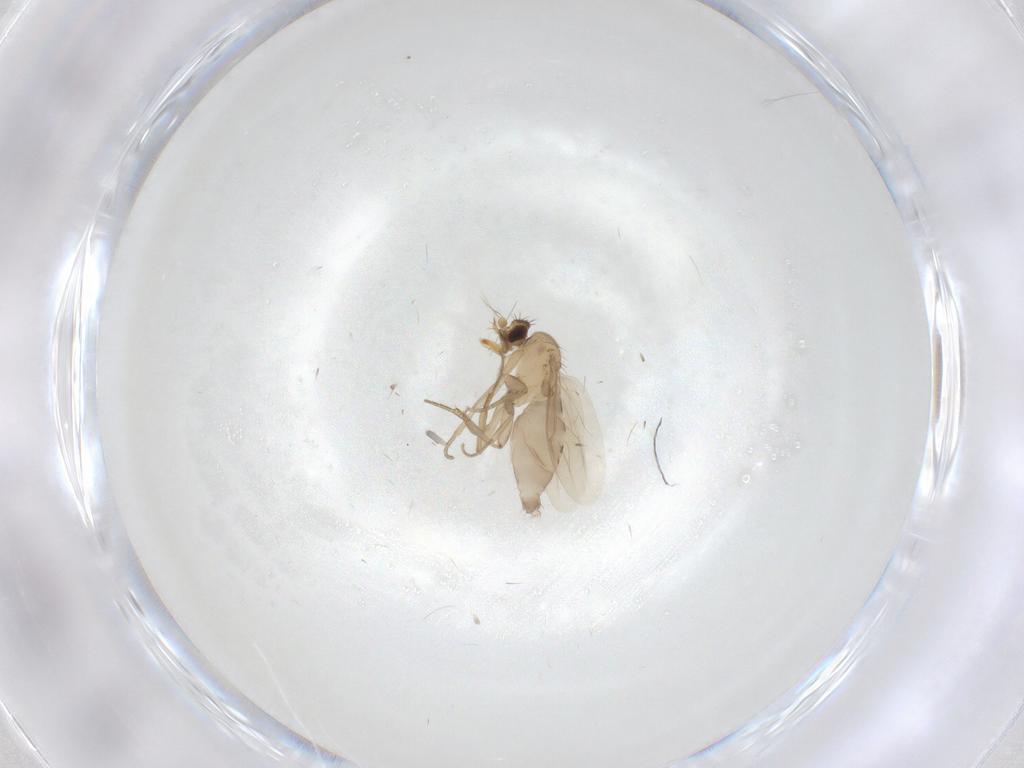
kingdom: Animalia
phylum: Arthropoda
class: Insecta
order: Diptera
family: Phoridae
